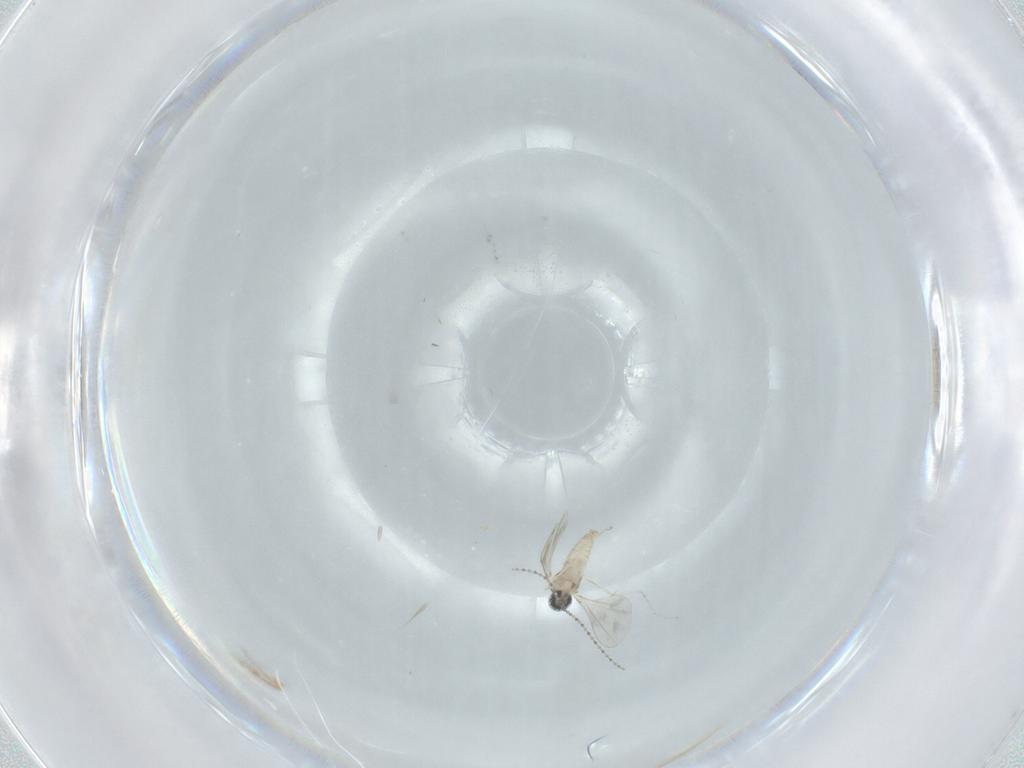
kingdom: Animalia
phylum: Arthropoda
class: Insecta
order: Diptera
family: Cecidomyiidae
